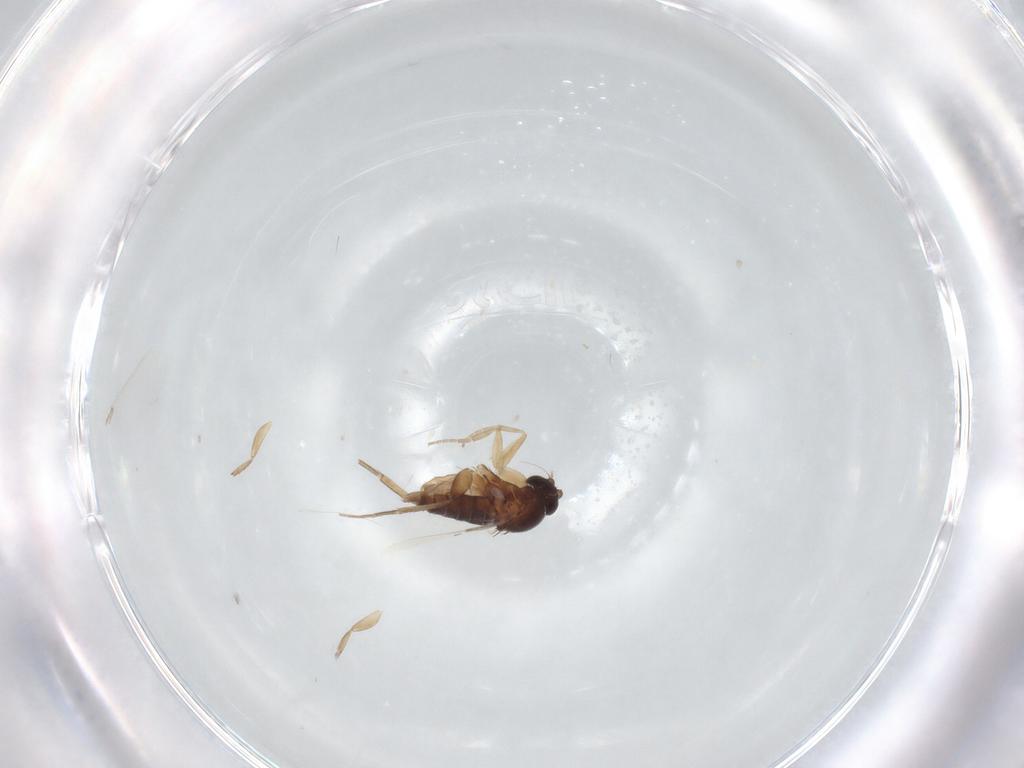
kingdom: Animalia
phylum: Arthropoda
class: Insecta
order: Diptera
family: Phoridae
